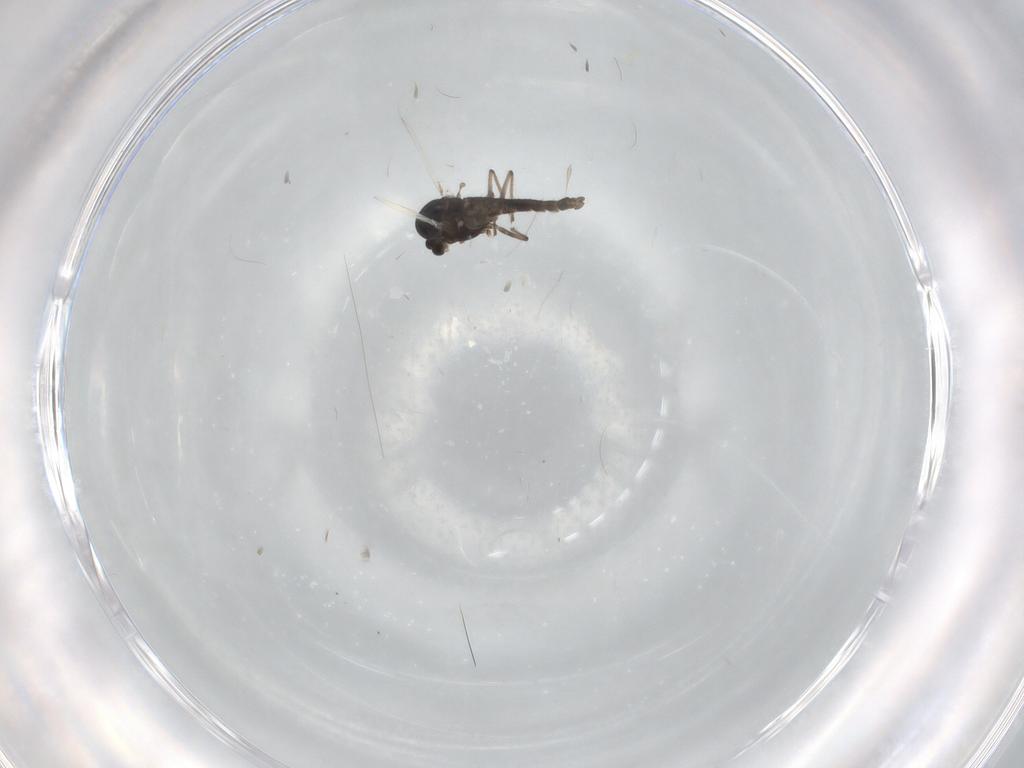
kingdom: Animalia
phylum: Arthropoda
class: Insecta
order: Diptera
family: Chironomidae
